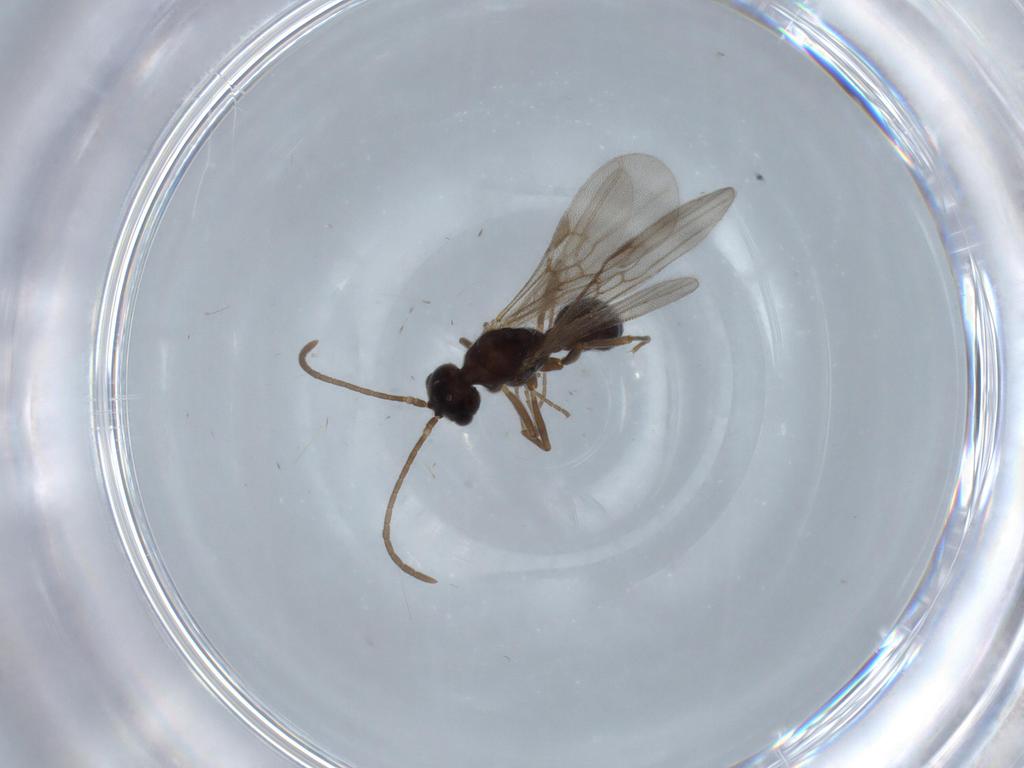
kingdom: Animalia
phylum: Arthropoda
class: Insecta
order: Hymenoptera
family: Formicidae
